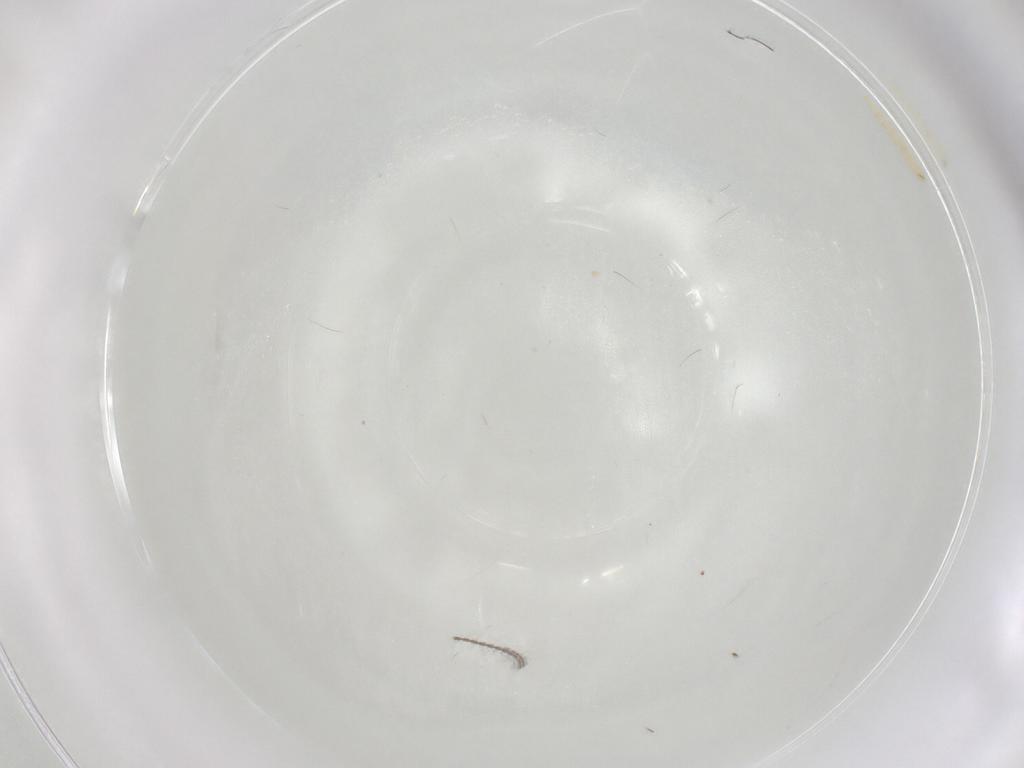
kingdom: Animalia
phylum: Arthropoda
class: Insecta
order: Diptera
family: Tachinidae
